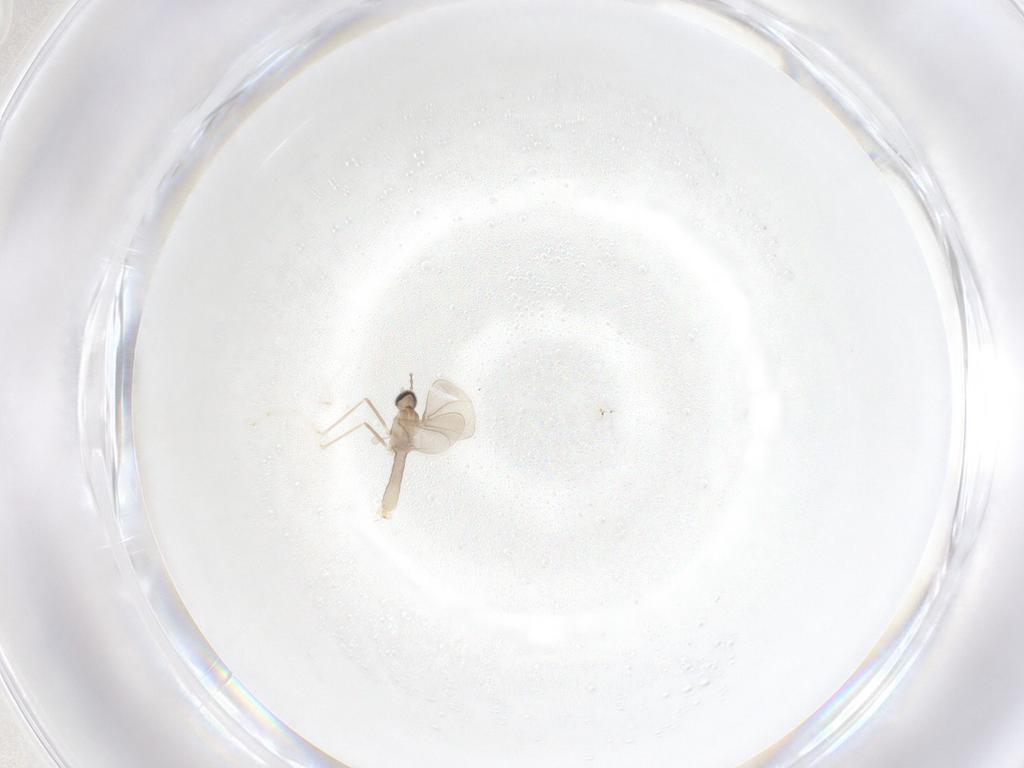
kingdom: Animalia
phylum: Arthropoda
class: Insecta
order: Diptera
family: Cecidomyiidae
